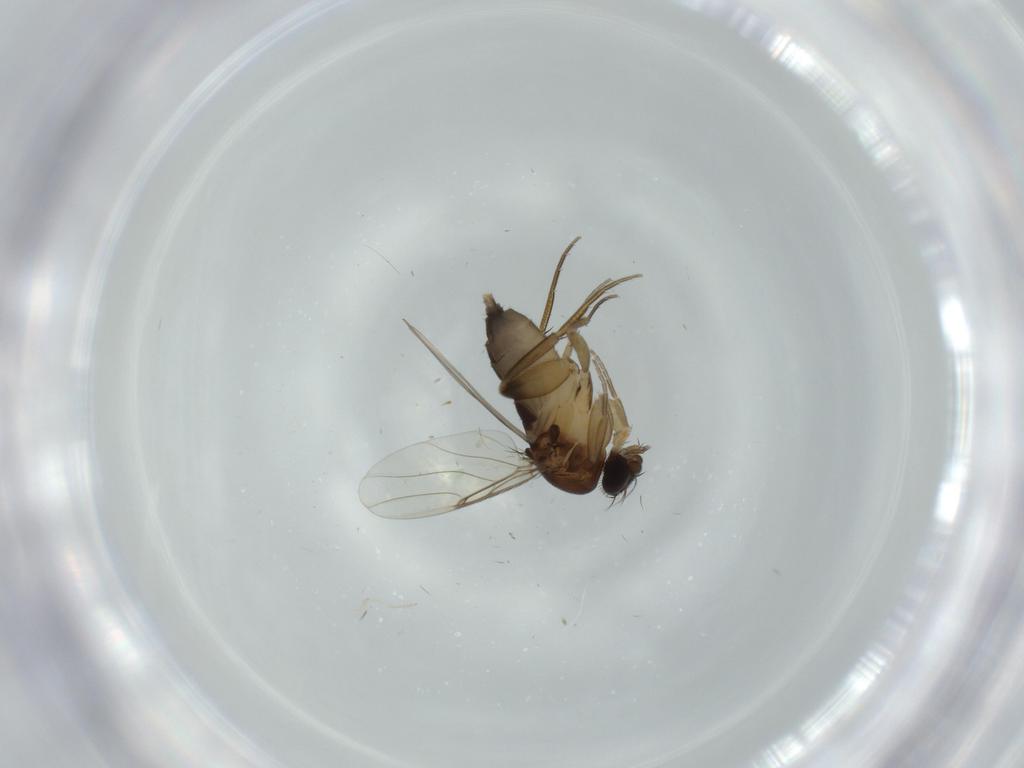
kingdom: Animalia
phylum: Arthropoda
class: Insecta
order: Diptera
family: Phoridae
